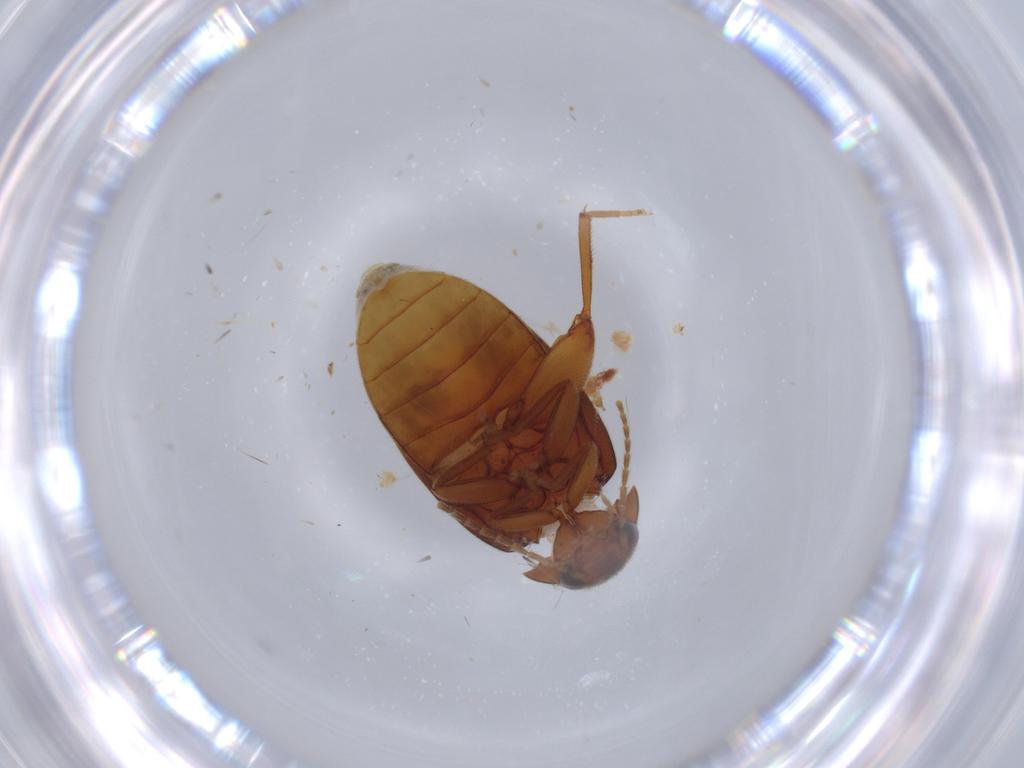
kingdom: Animalia
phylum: Arthropoda
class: Insecta
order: Coleoptera
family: Scirtidae
